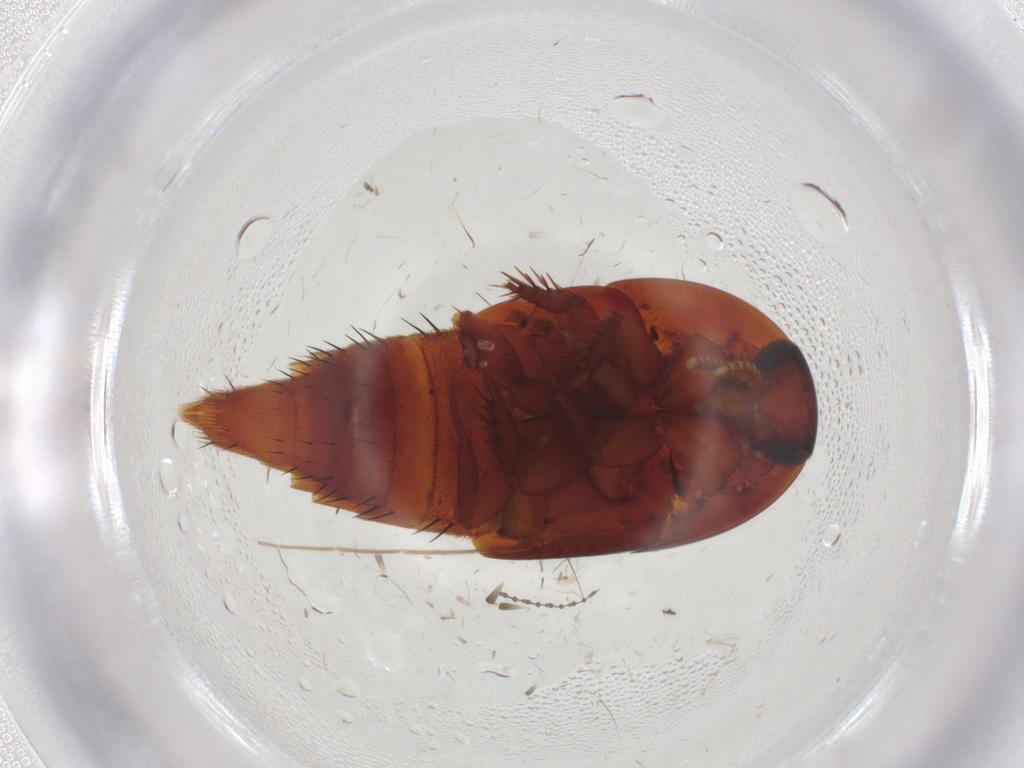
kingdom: Animalia
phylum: Arthropoda
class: Insecta
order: Coleoptera
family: Staphylinidae
